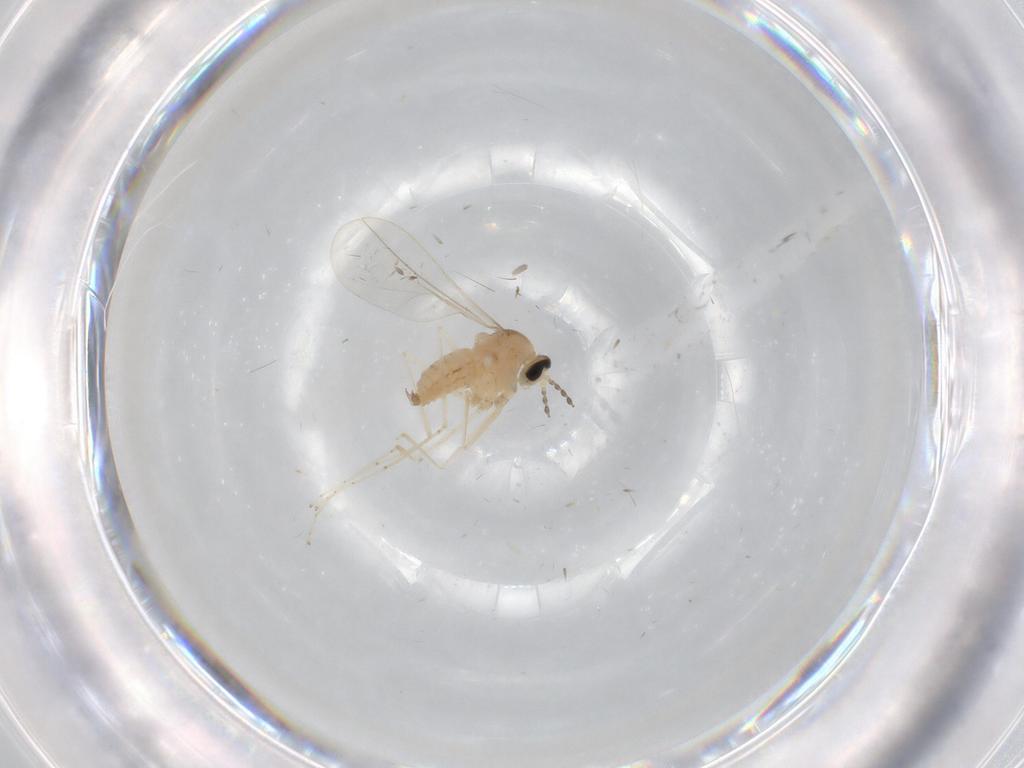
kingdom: Animalia
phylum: Arthropoda
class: Insecta
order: Diptera
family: Cecidomyiidae
